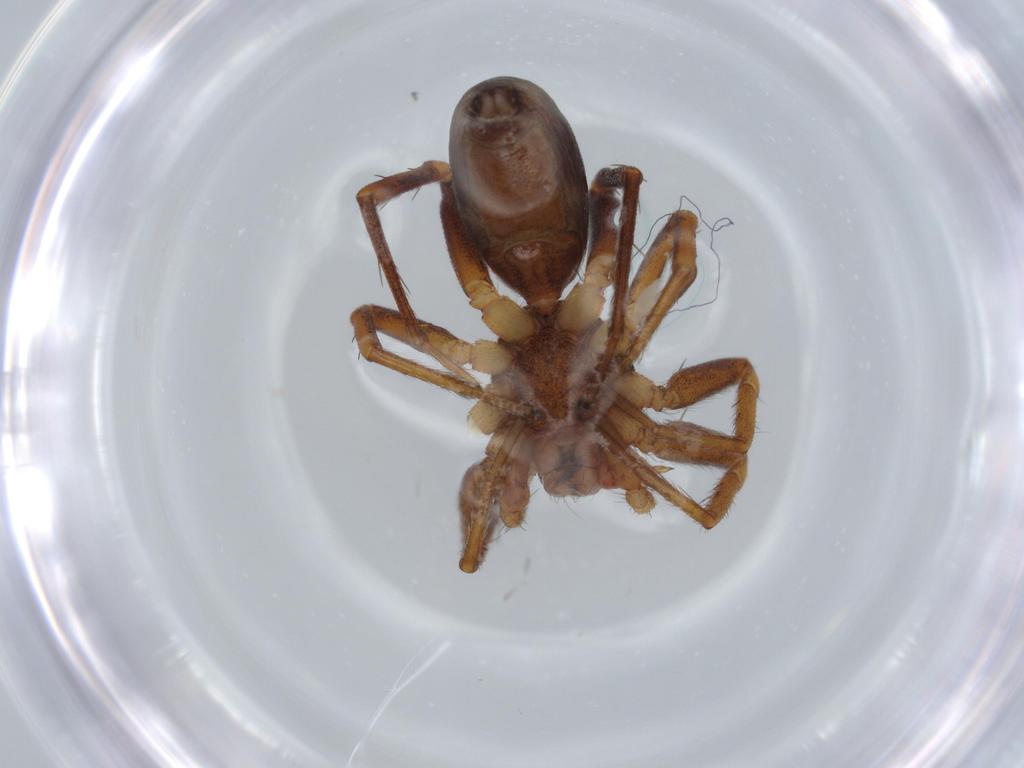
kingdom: Animalia
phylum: Arthropoda
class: Arachnida
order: Araneae
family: Corinnidae
